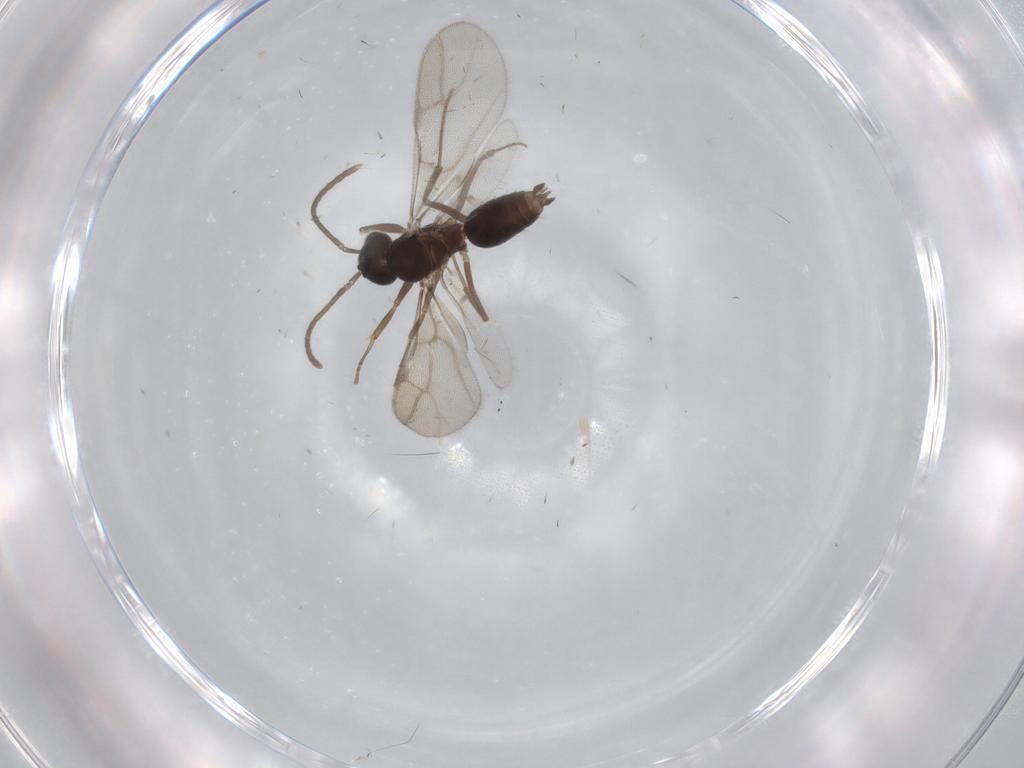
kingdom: Animalia
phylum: Arthropoda
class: Insecta
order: Hymenoptera
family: Formicidae
